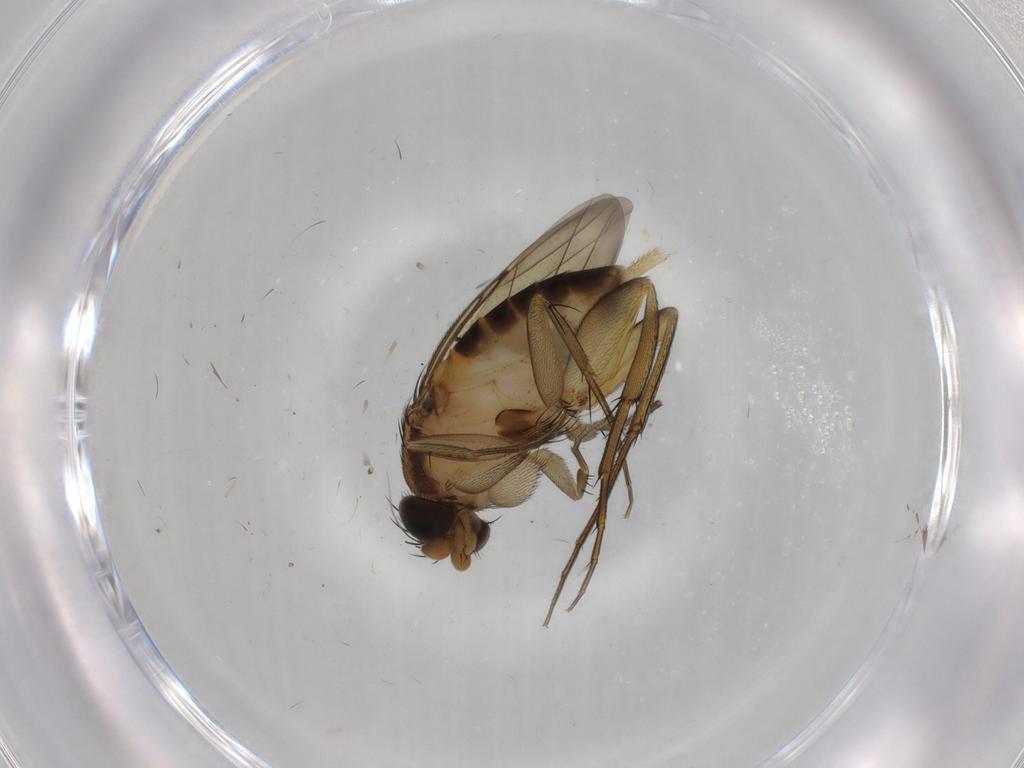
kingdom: Animalia
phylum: Arthropoda
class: Insecta
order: Diptera
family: Phoridae
